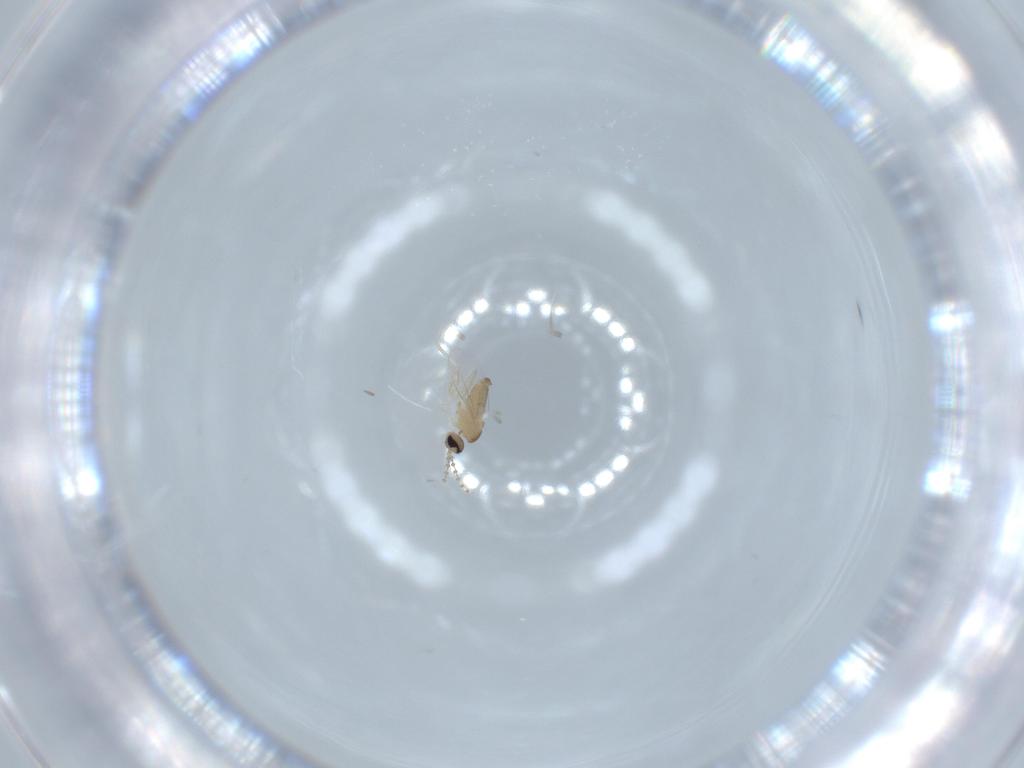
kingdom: Animalia
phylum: Arthropoda
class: Insecta
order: Diptera
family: Cecidomyiidae
